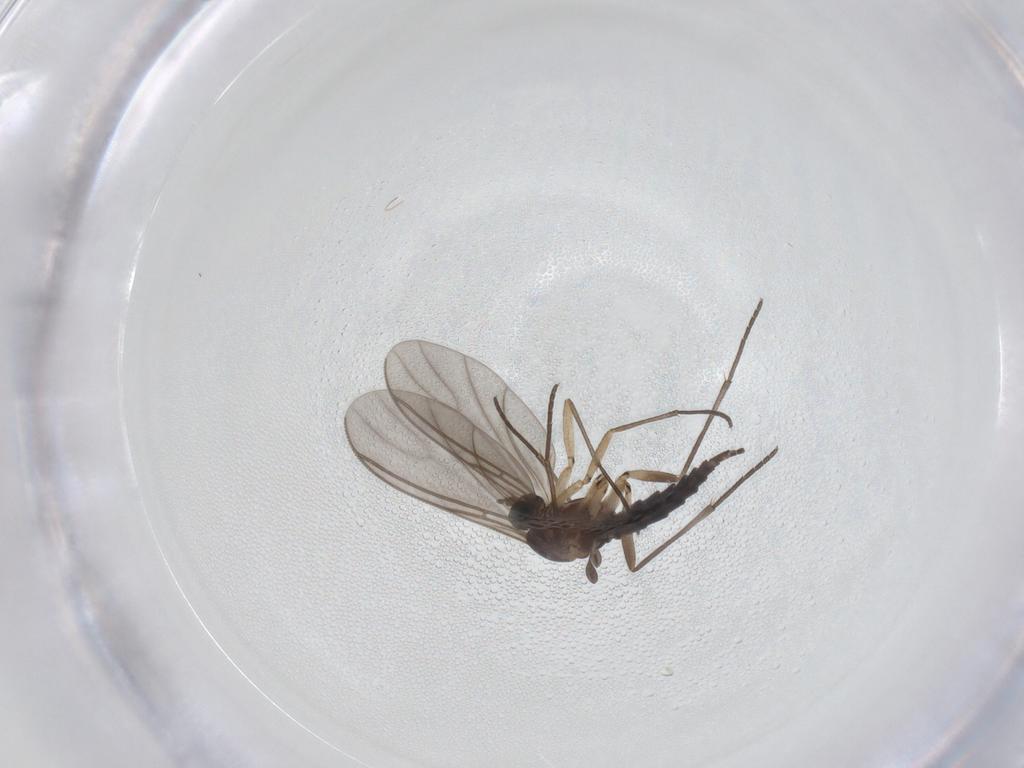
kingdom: Animalia
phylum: Arthropoda
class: Insecta
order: Diptera
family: Sciaridae
